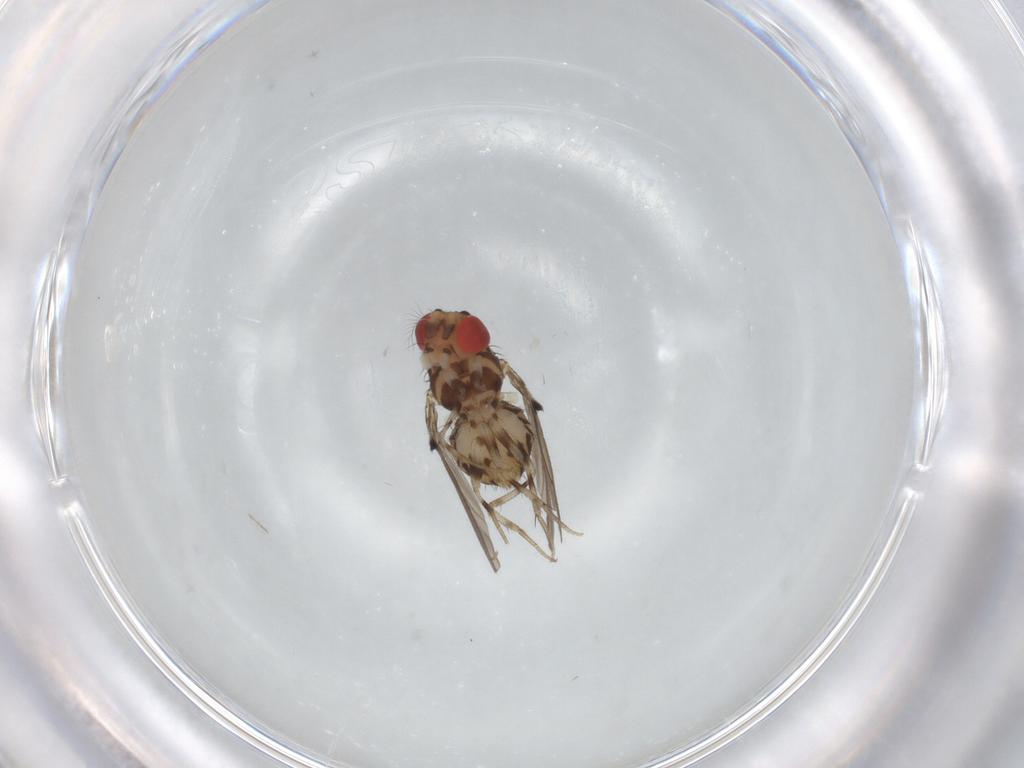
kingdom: Animalia
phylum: Arthropoda
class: Insecta
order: Diptera
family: Drosophilidae
